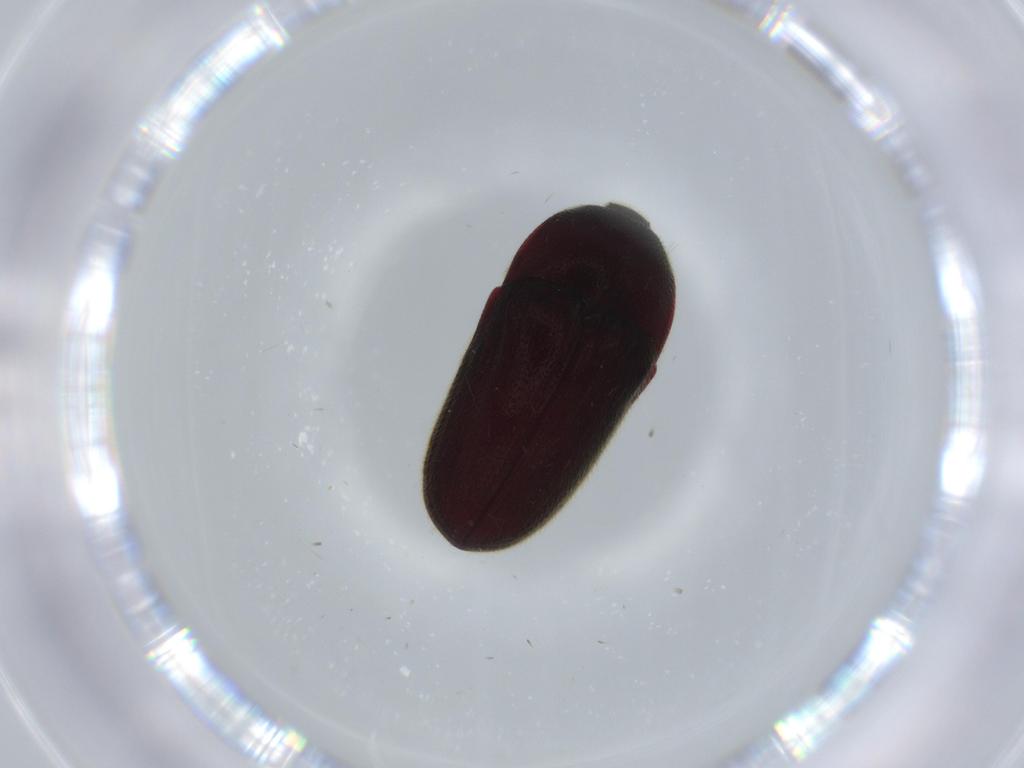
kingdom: Animalia
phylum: Arthropoda
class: Insecta
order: Coleoptera
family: Throscidae
